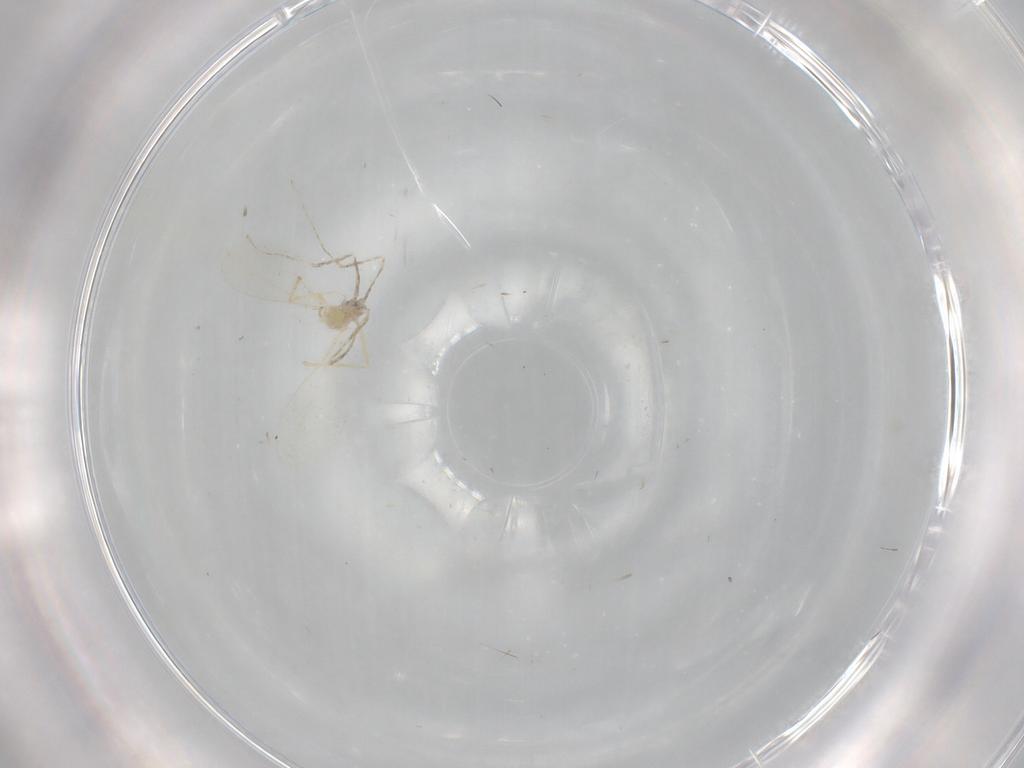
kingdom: Animalia
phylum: Arthropoda
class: Insecta
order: Diptera
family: Cecidomyiidae
